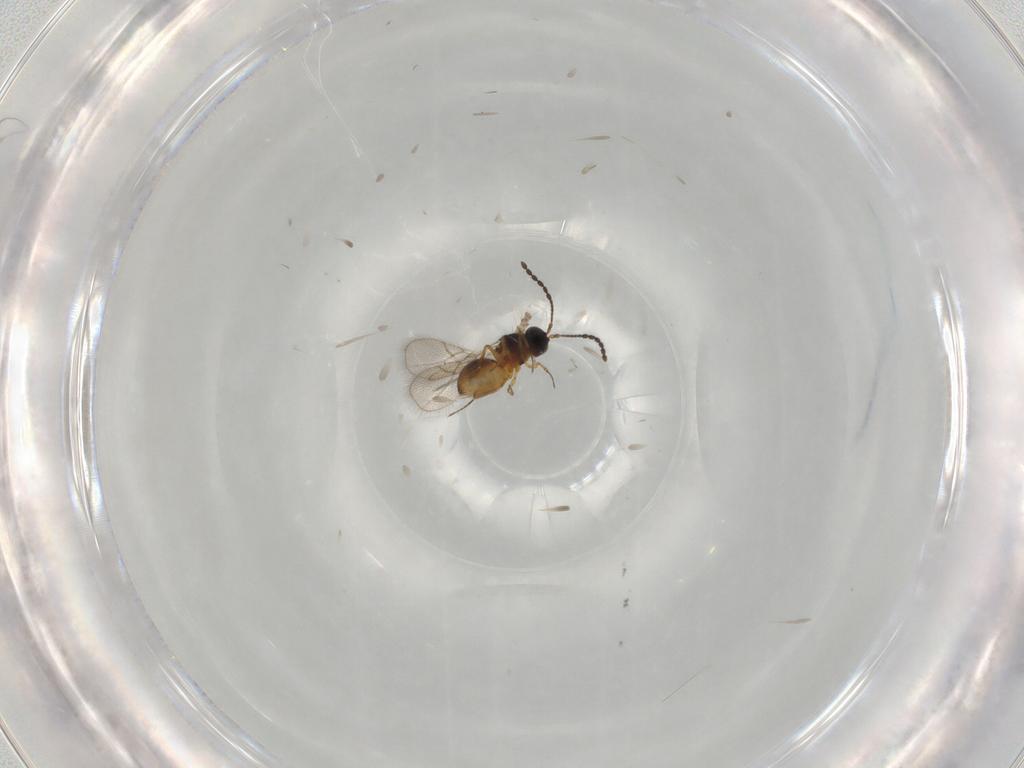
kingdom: Animalia
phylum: Arthropoda
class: Insecta
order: Hymenoptera
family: Figitidae
